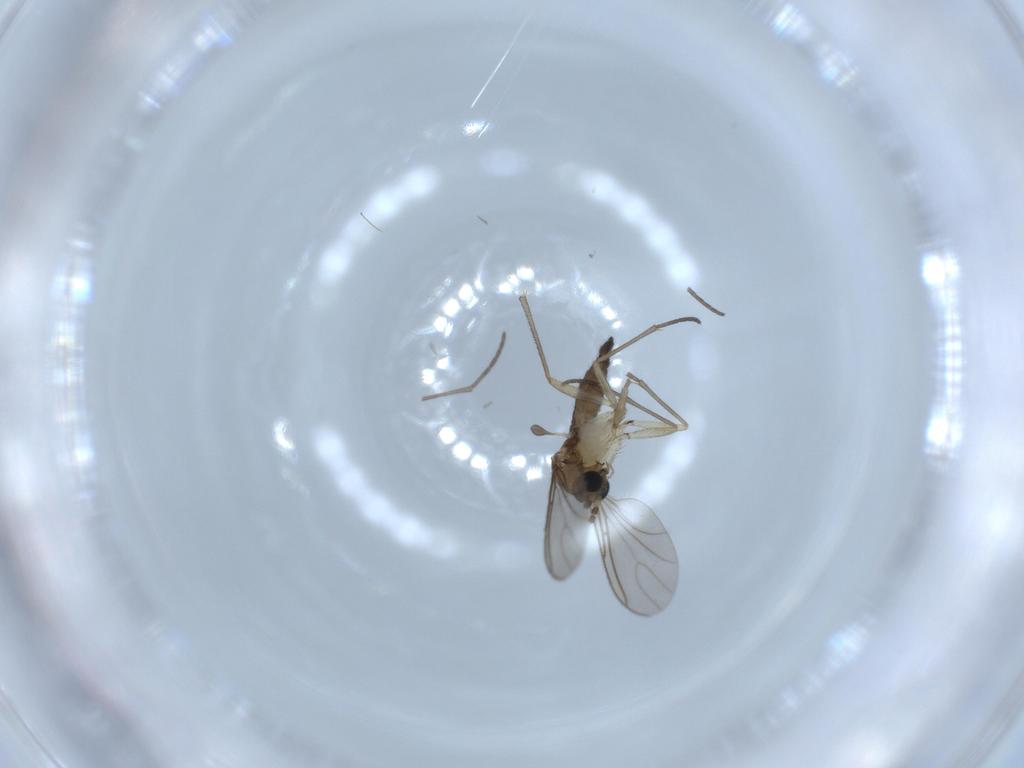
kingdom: Animalia
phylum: Arthropoda
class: Insecta
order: Diptera
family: Sciaridae
